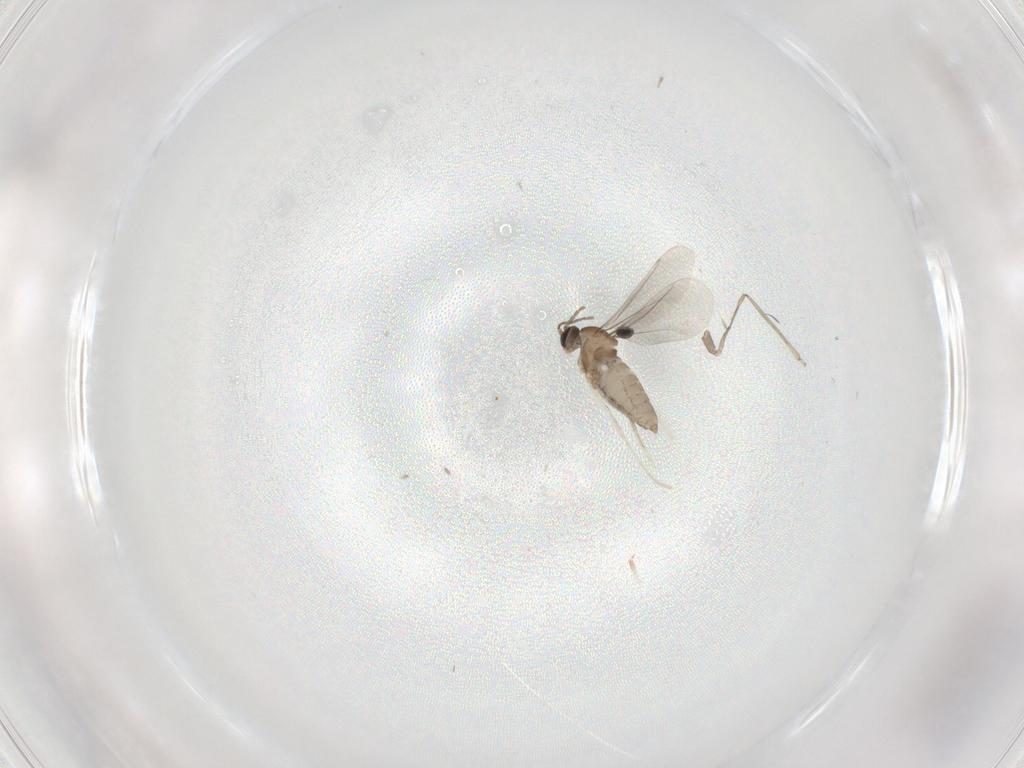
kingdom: Animalia
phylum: Arthropoda
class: Insecta
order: Diptera
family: Cecidomyiidae
